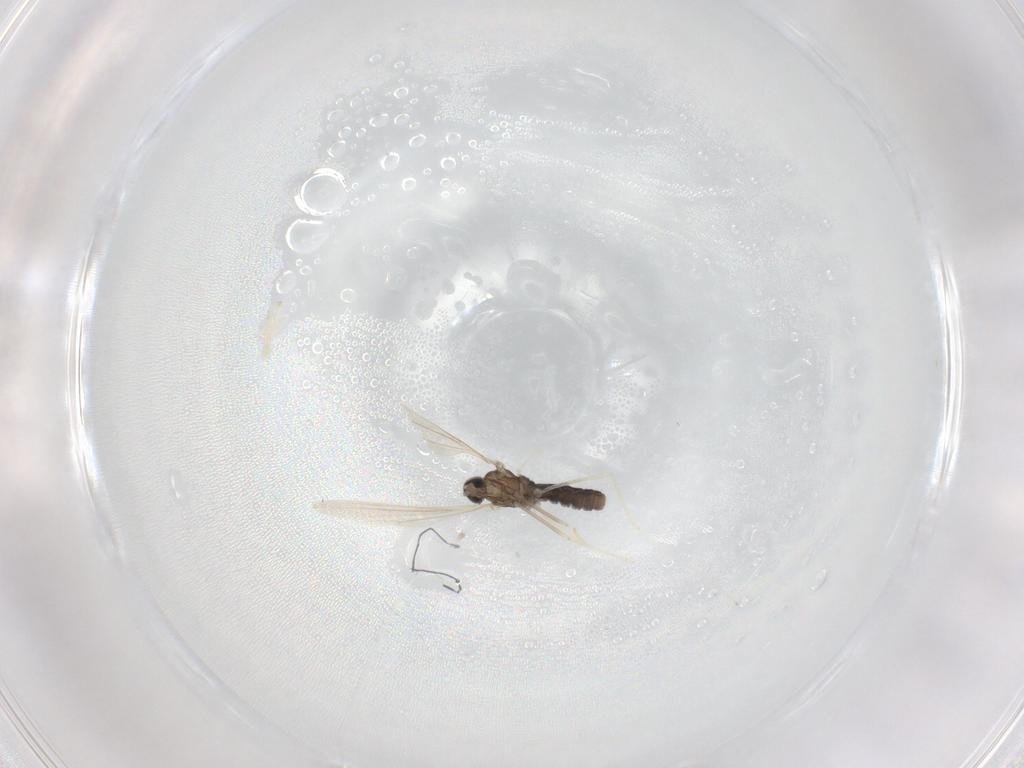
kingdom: Animalia
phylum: Arthropoda
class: Insecta
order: Diptera
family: Cecidomyiidae
